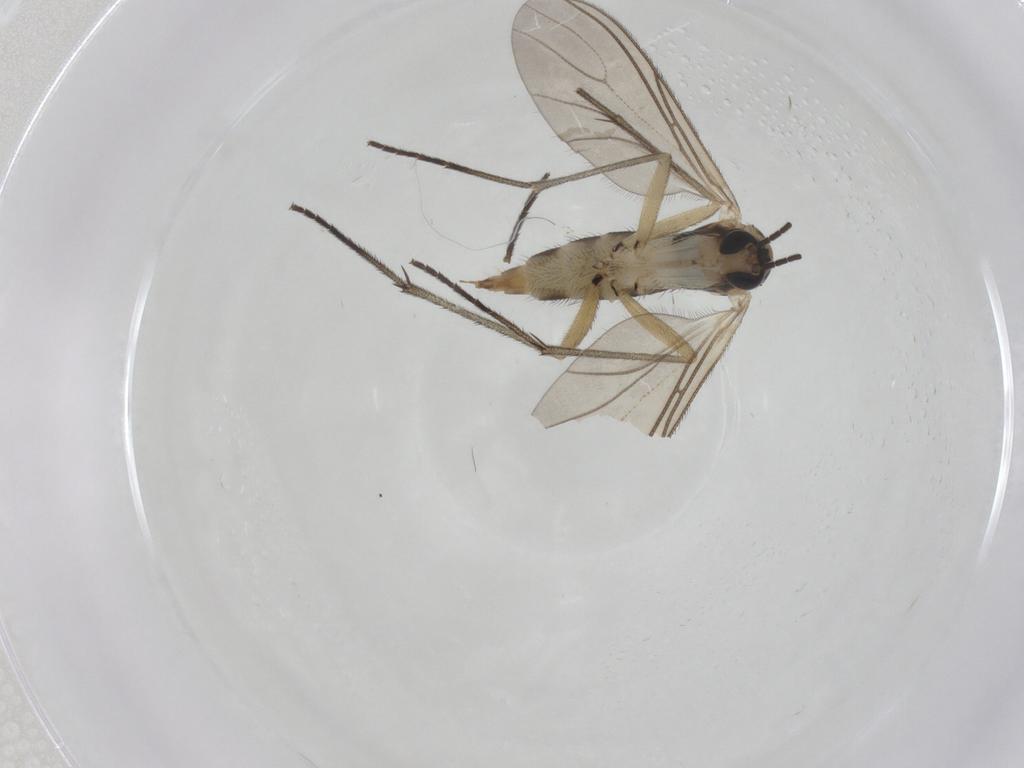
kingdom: Animalia
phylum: Arthropoda
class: Insecta
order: Diptera
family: Sciaridae
